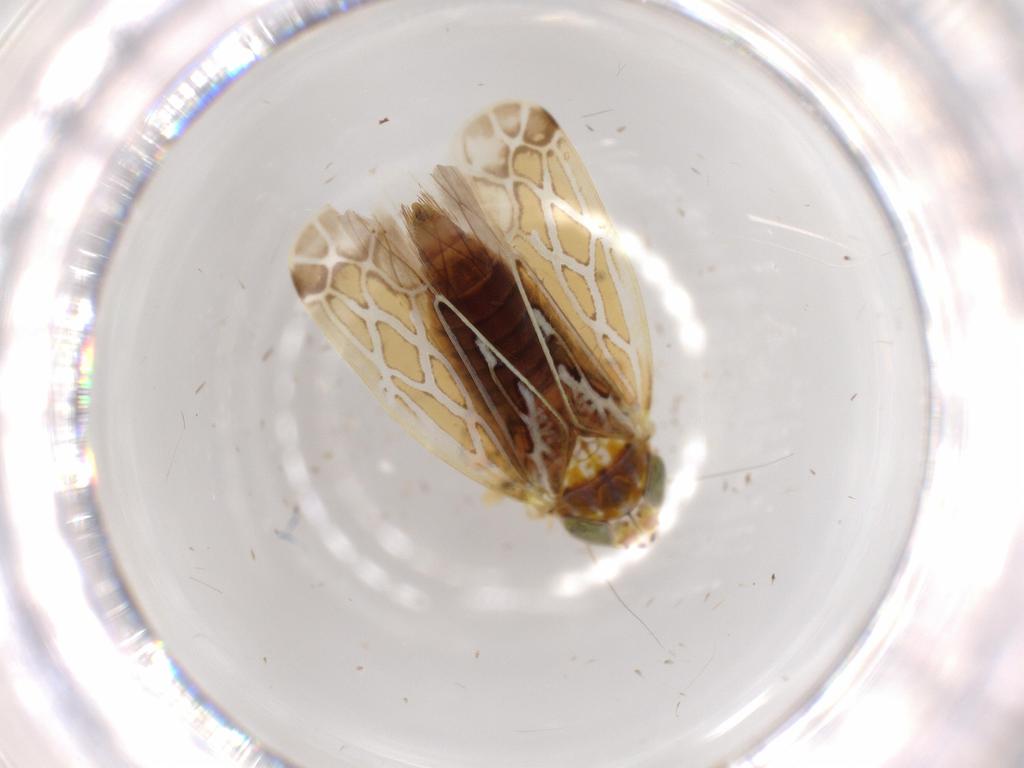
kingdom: Animalia
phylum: Arthropoda
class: Insecta
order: Hemiptera
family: Cicadellidae
